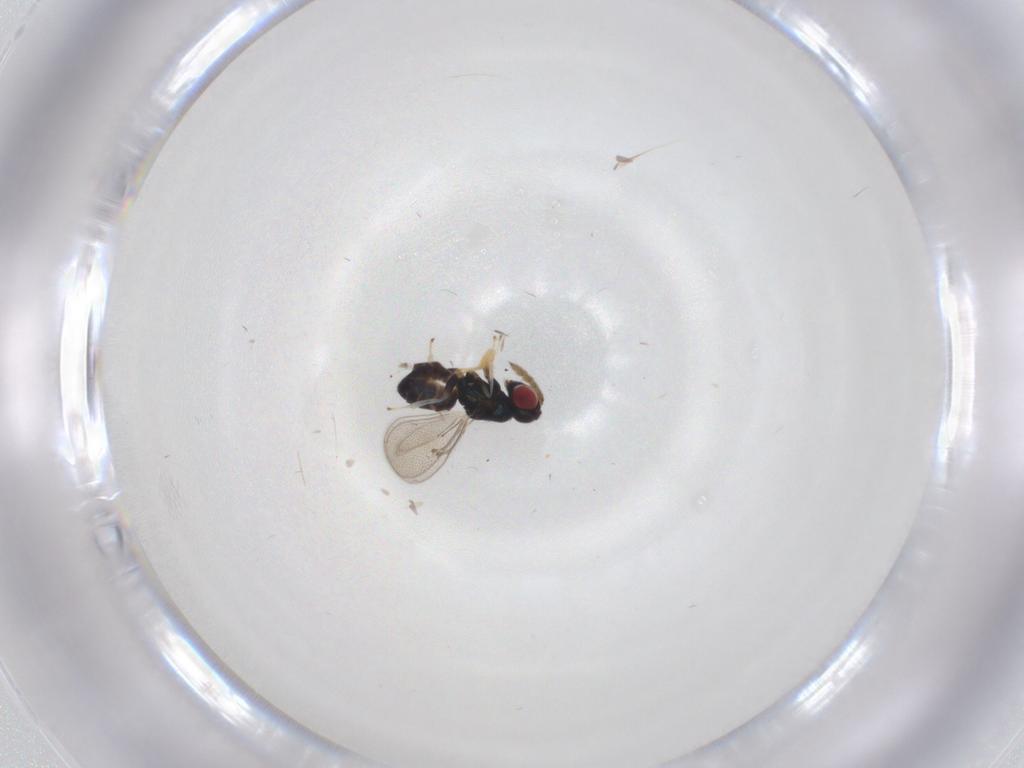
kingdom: Animalia
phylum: Arthropoda
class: Insecta
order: Hymenoptera
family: Eulophidae
